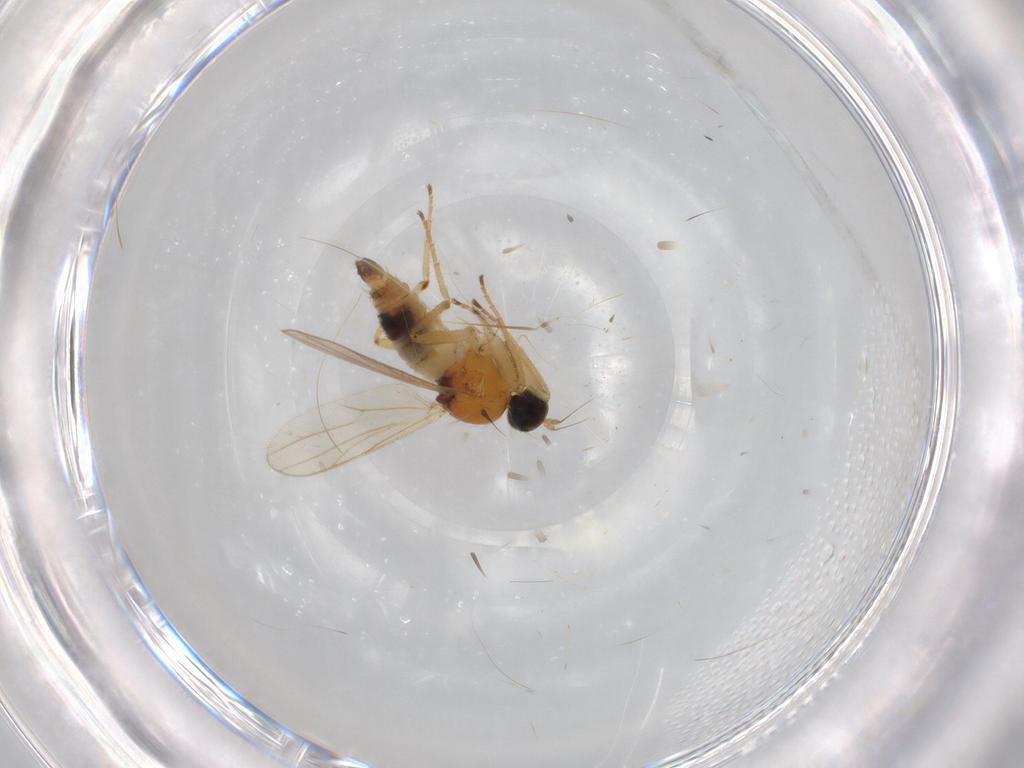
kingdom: Animalia
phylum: Arthropoda
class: Insecta
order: Diptera
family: Hybotidae
